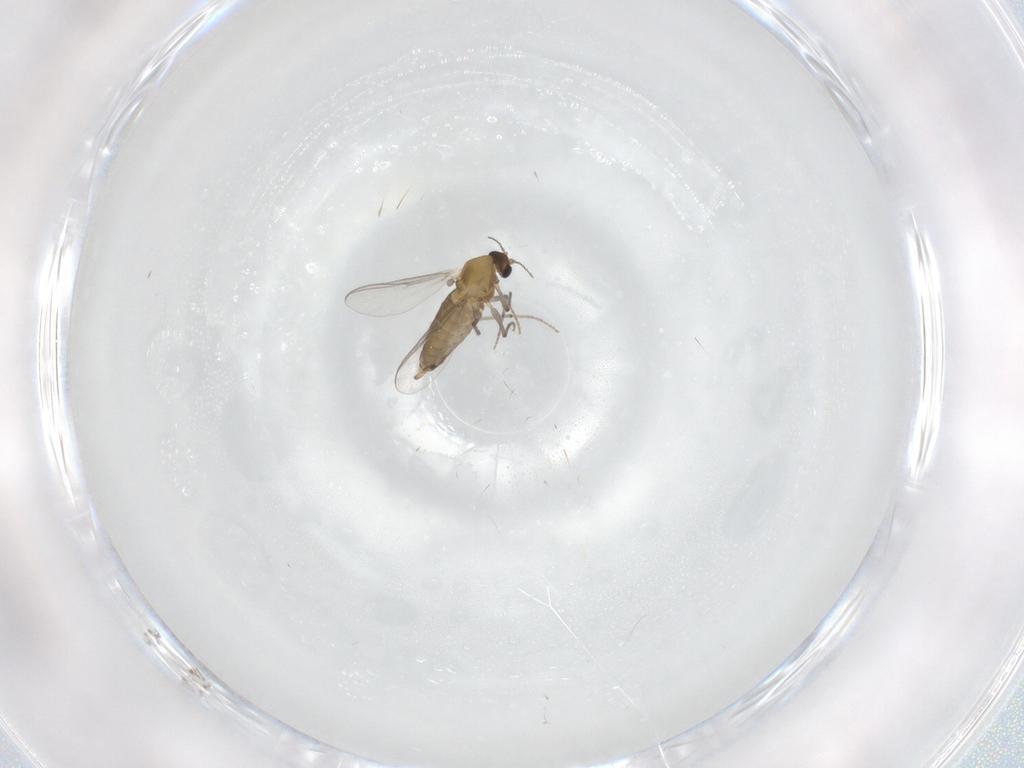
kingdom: Animalia
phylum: Arthropoda
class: Insecta
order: Diptera
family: Chironomidae
